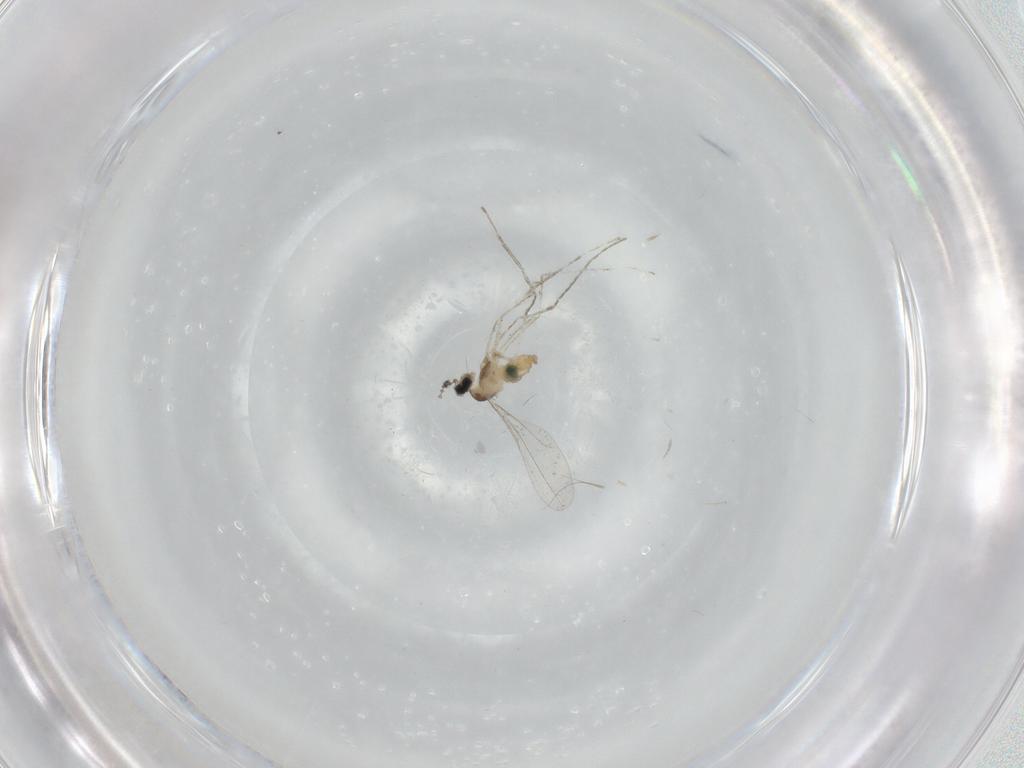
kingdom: Animalia
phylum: Arthropoda
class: Insecta
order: Diptera
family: Cecidomyiidae
